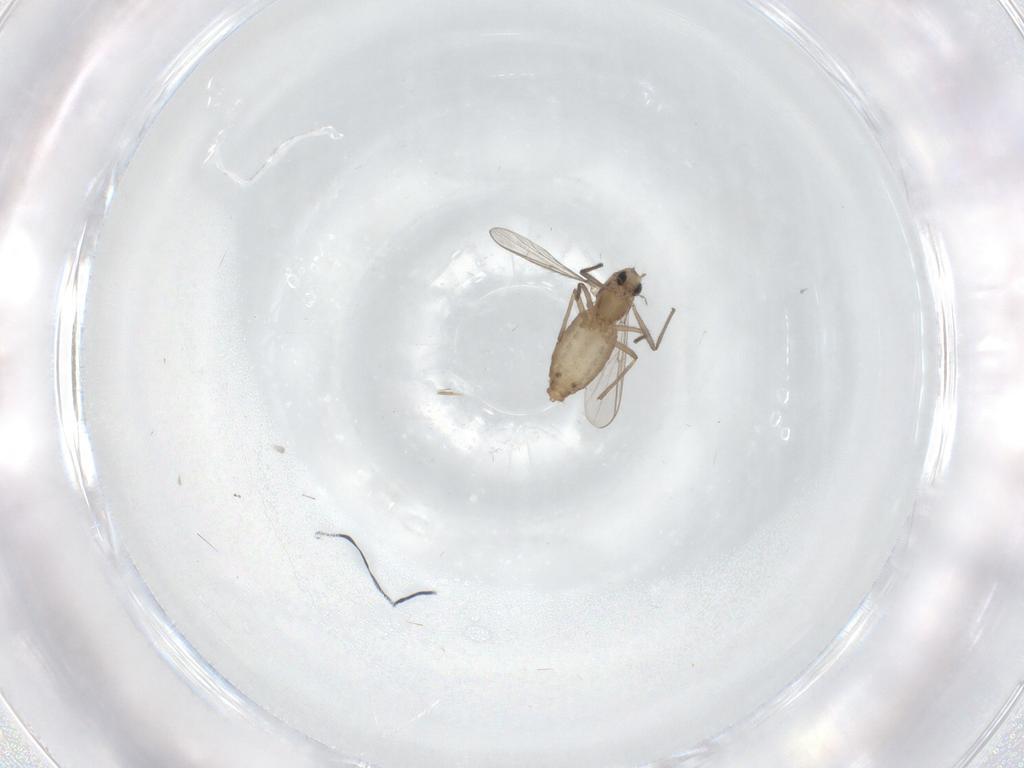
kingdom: Animalia
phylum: Arthropoda
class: Insecta
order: Diptera
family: Chironomidae
